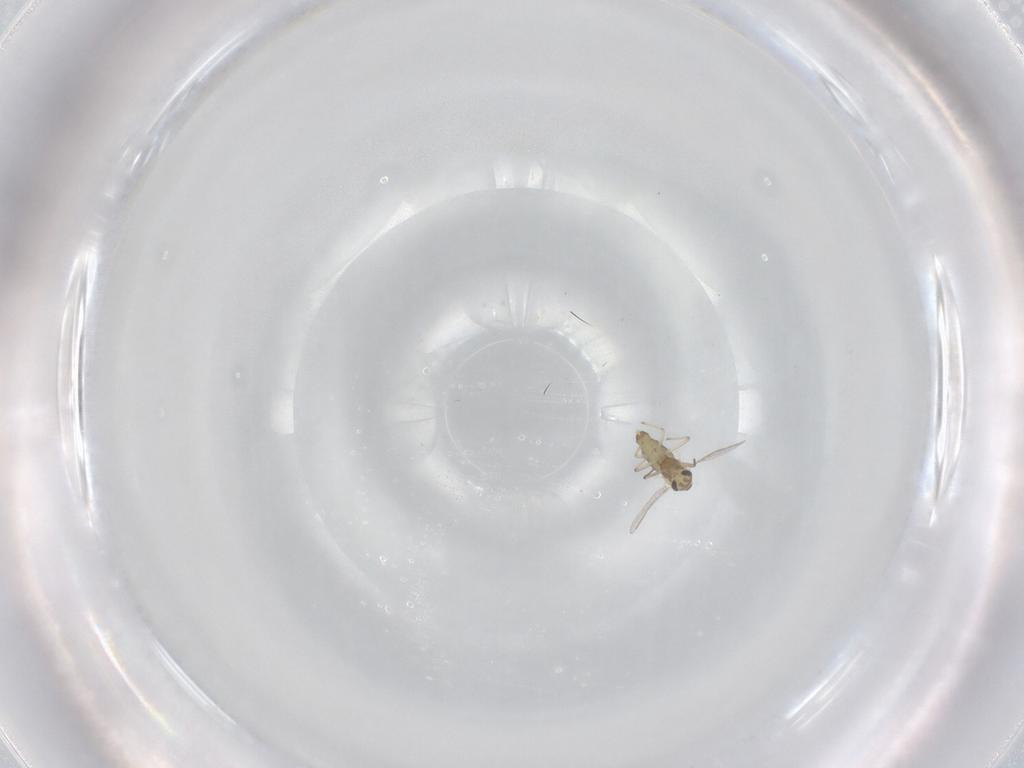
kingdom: Animalia
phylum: Arthropoda
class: Insecta
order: Diptera
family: Chironomidae
